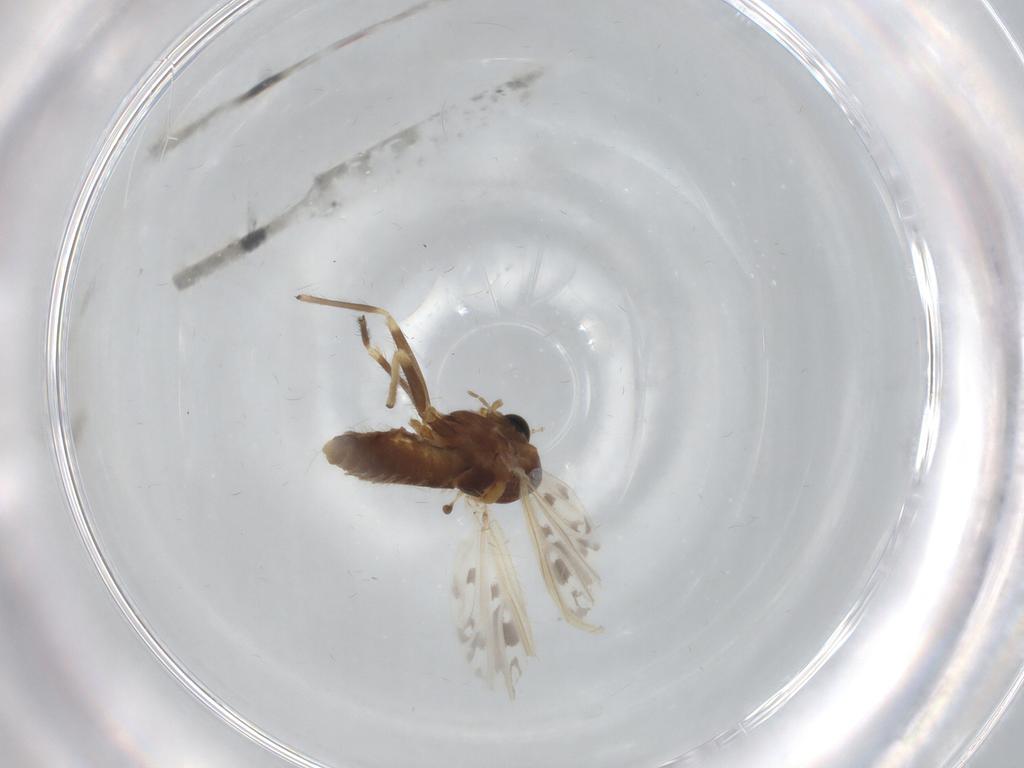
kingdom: Animalia
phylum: Arthropoda
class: Insecta
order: Diptera
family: Chironomidae
